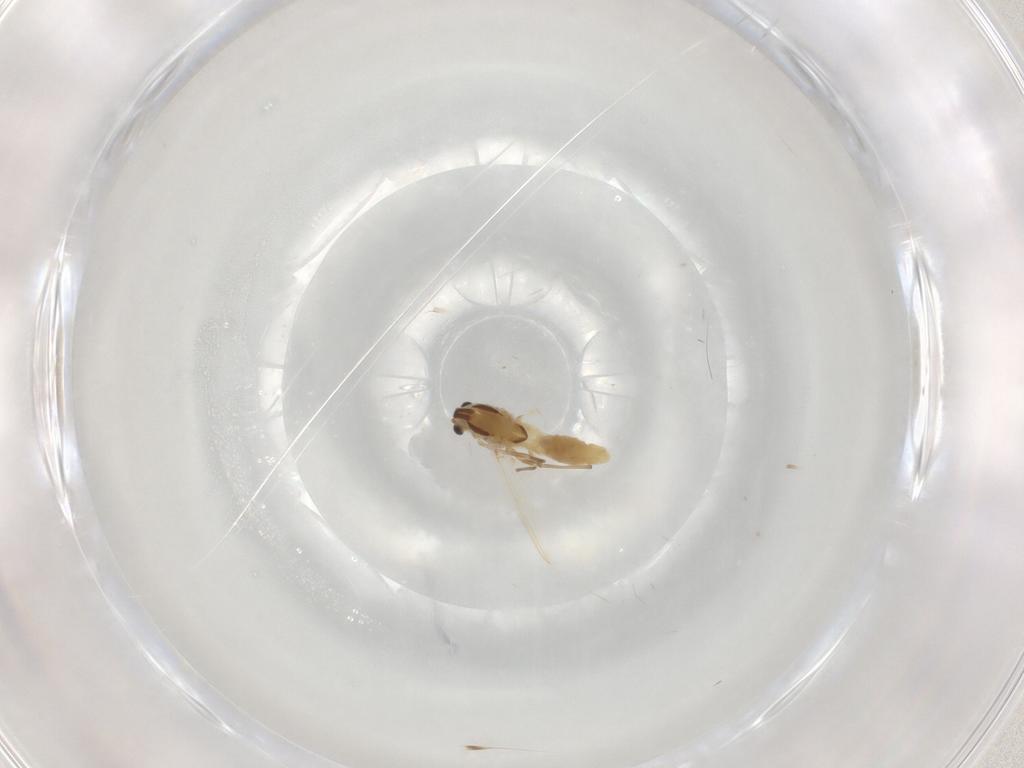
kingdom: Animalia
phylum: Arthropoda
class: Insecta
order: Diptera
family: Chironomidae
